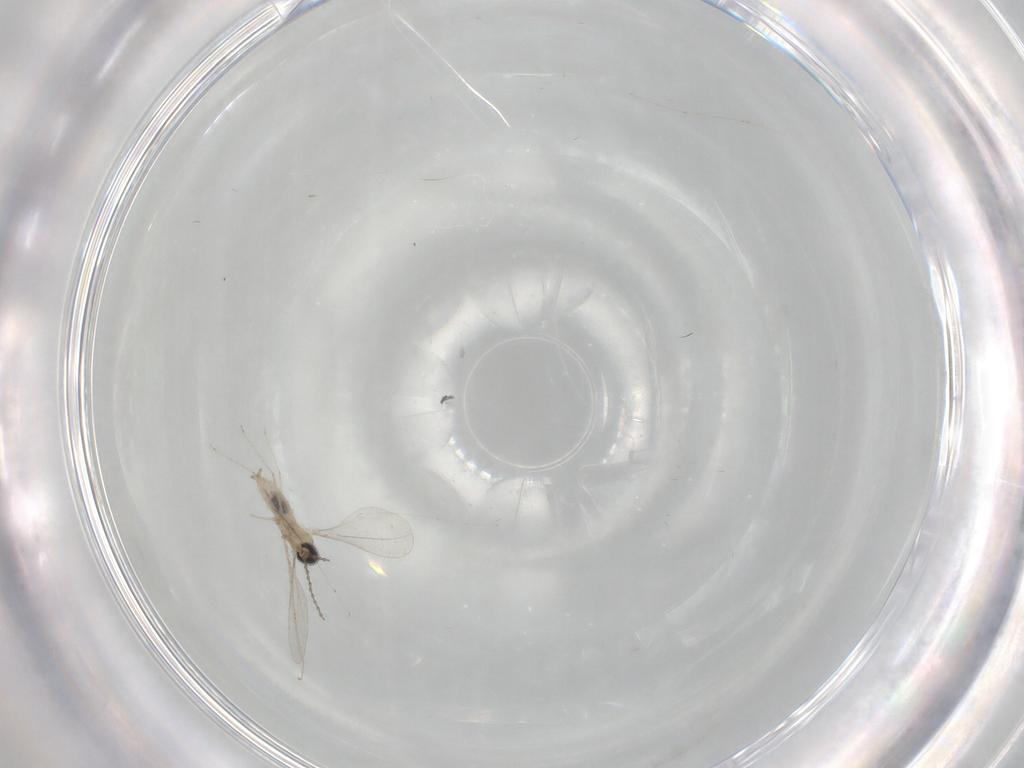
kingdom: Animalia
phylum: Arthropoda
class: Insecta
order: Diptera
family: Cecidomyiidae
